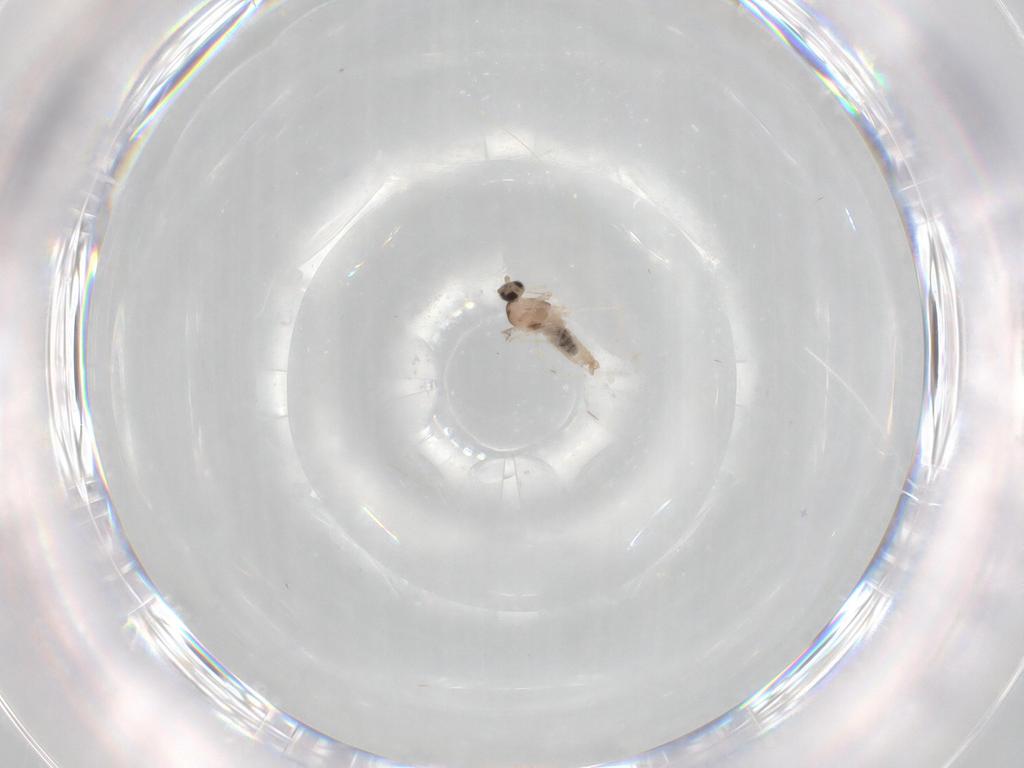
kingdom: Animalia
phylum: Arthropoda
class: Insecta
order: Diptera
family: Cecidomyiidae
